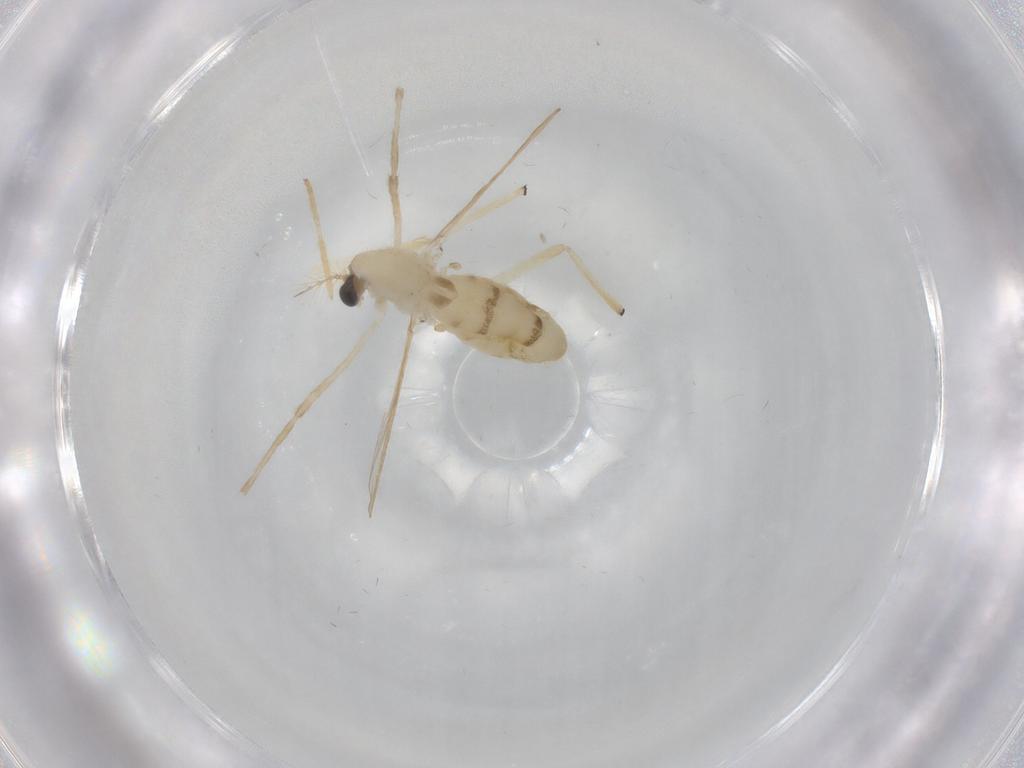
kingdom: Animalia
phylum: Arthropoda
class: Insecta
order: Diptera
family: Chironomidae
